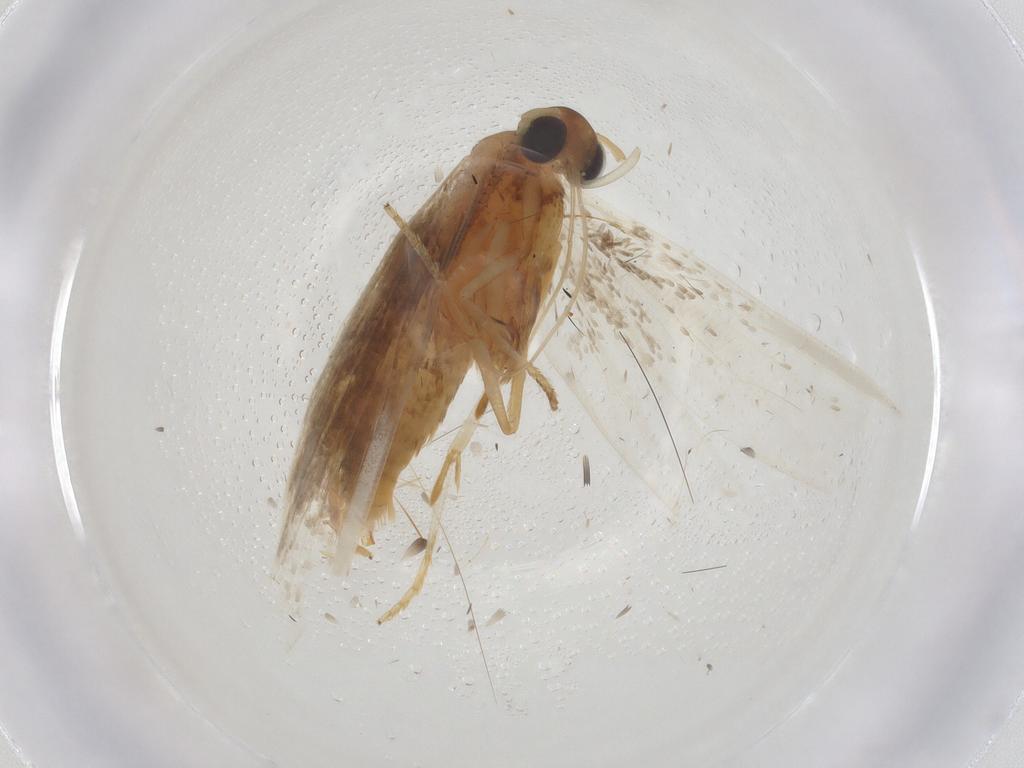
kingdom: Animalia
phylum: Arthropoda
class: Insecta
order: Lepidoptera
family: Blastobasidae
